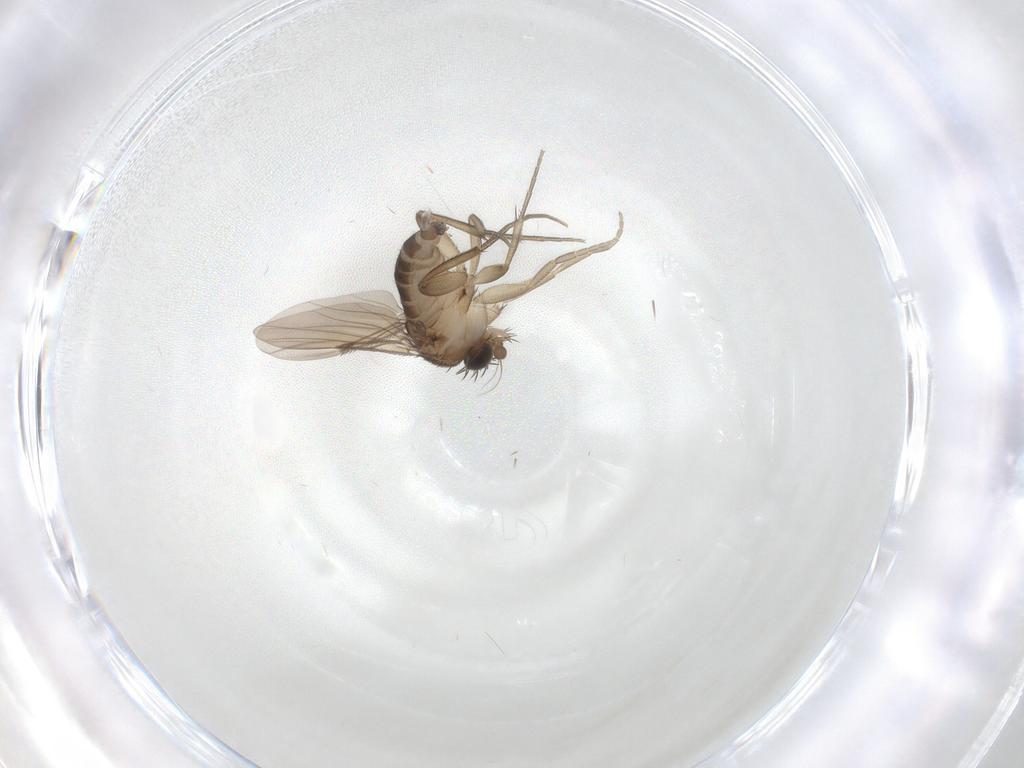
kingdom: Animalia
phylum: Arthropoda
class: Insecta
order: Diptera
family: Phoridae
